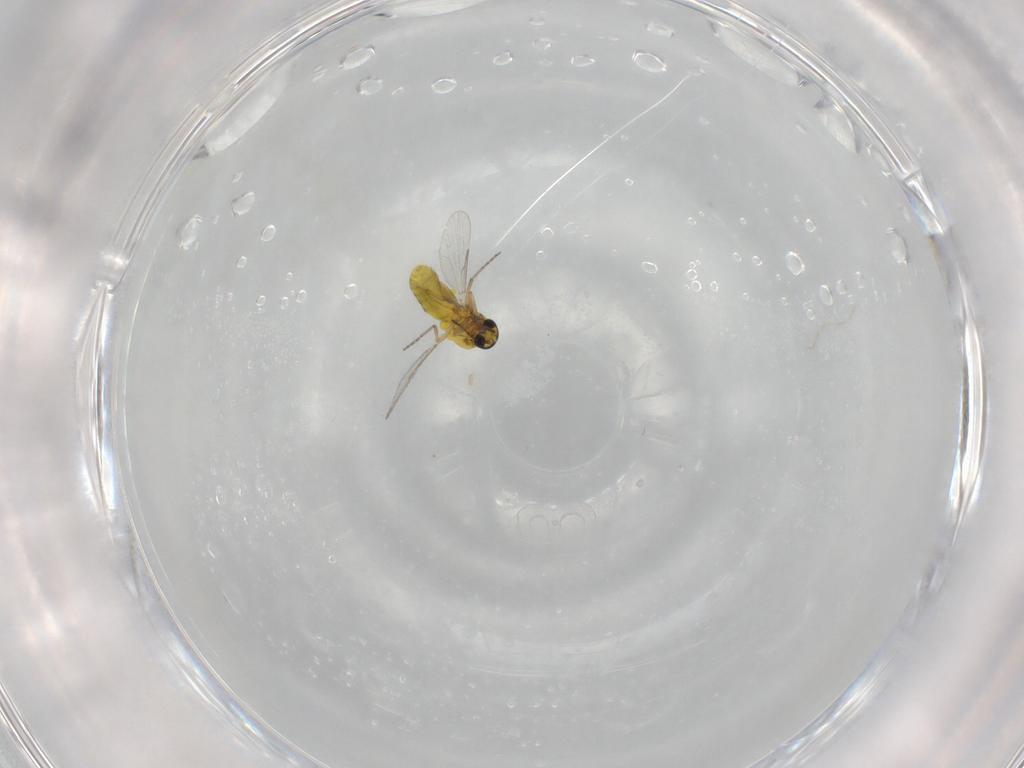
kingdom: Animalia
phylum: Arthropoda
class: Insecta
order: Diptera
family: Ceratopogonidae
